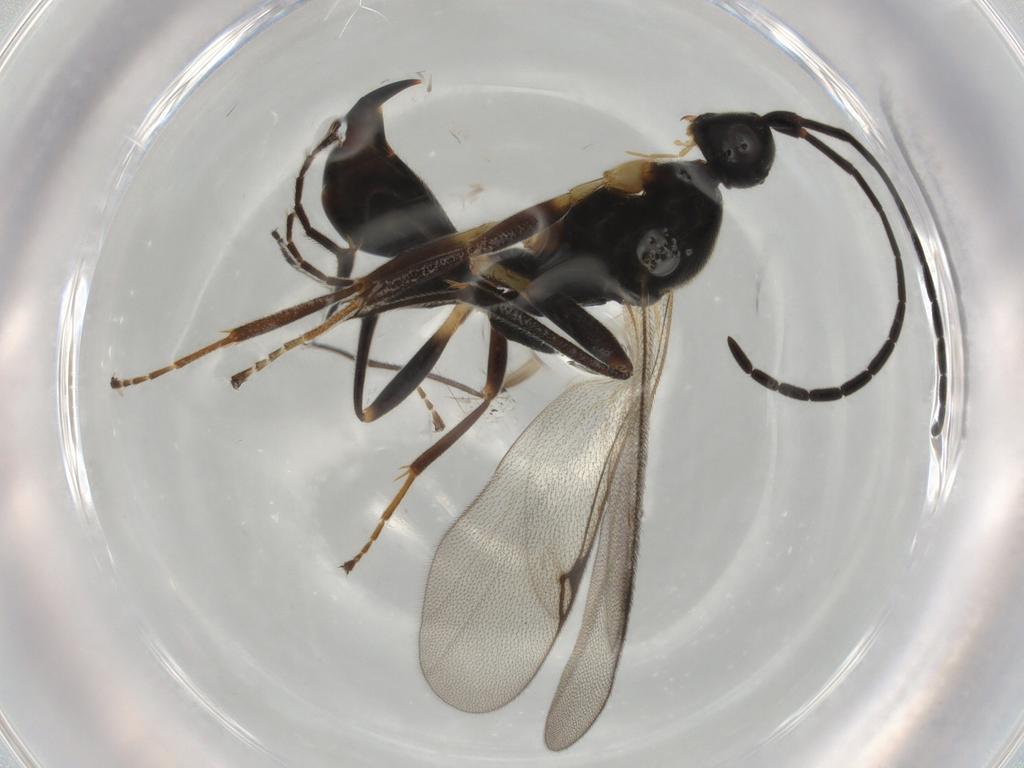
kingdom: Animalia
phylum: Arthropoda
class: Insecta
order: Hymenoptera
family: Proctotrupidae
